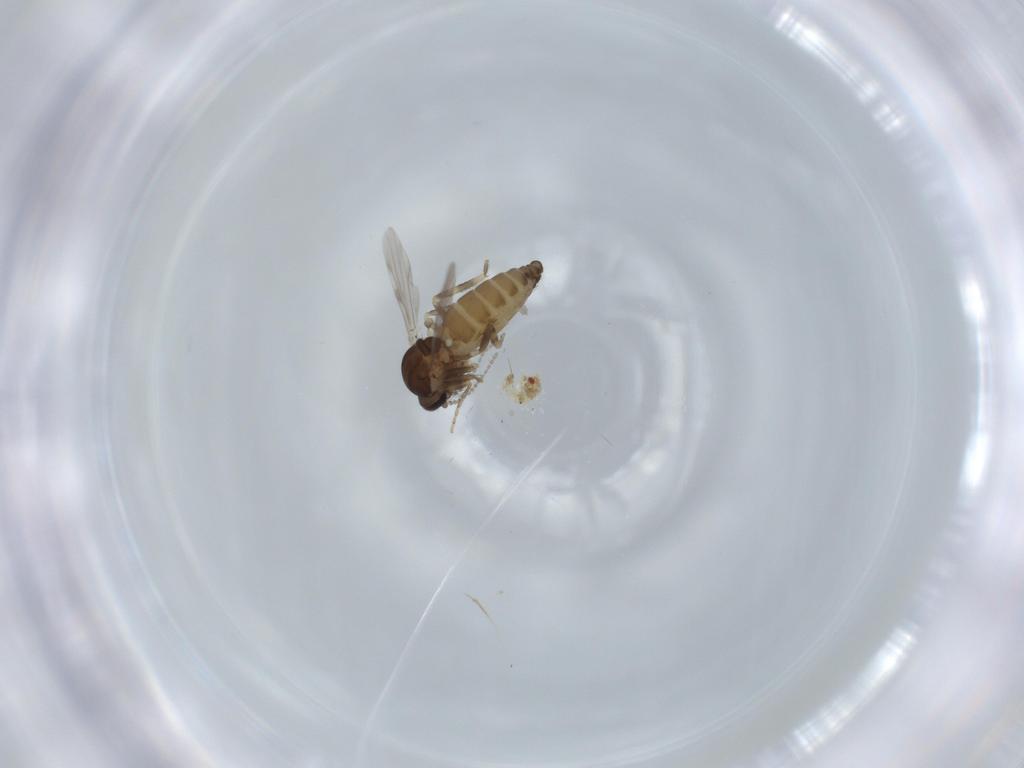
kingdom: Animalia
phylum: Arthropoda
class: Insecta
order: Diptera
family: Ceratopogonidae
